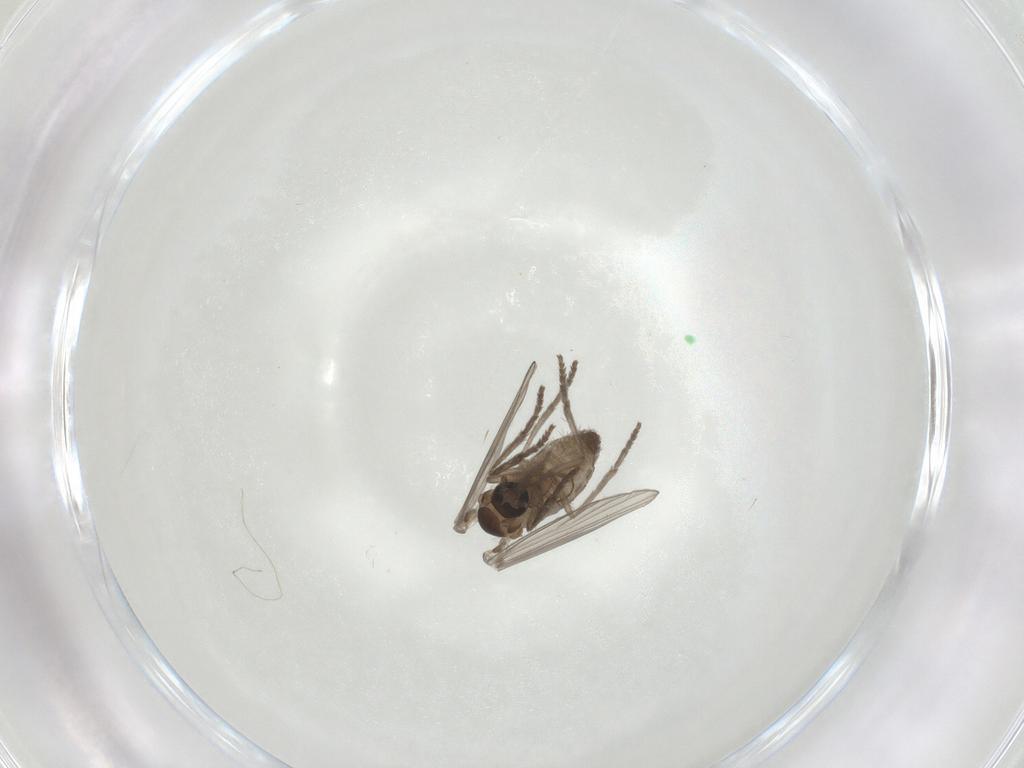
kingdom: Animalia
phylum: Arthropoda
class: Insecta
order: Diptera
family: Psychodidae
